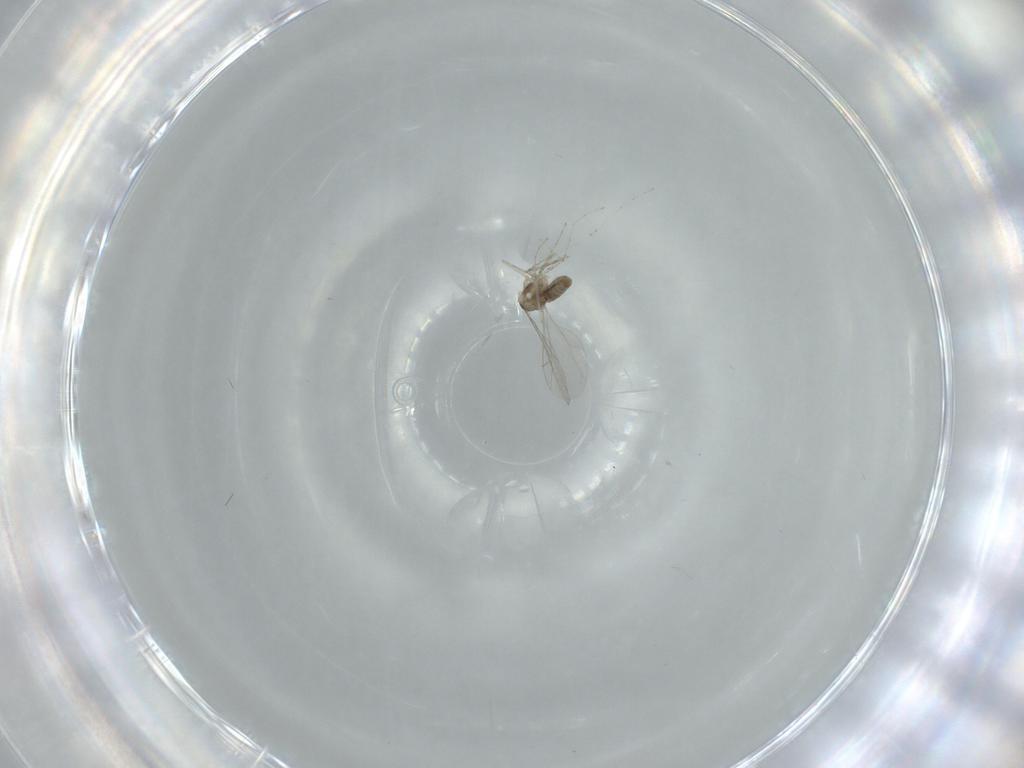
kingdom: Animalia
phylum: Arthropoda
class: Insecta
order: Diptera
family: Cecidomyiidae
